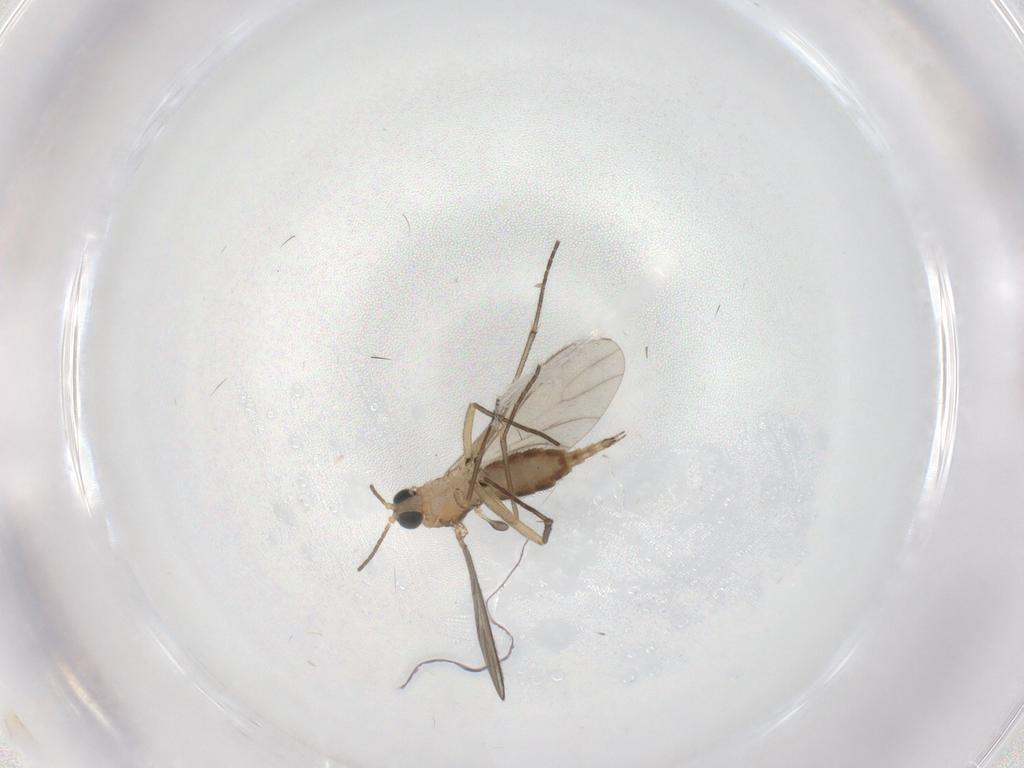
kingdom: Animalia
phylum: Arthropoda
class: Insecta
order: Diptera
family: Sciaridae
